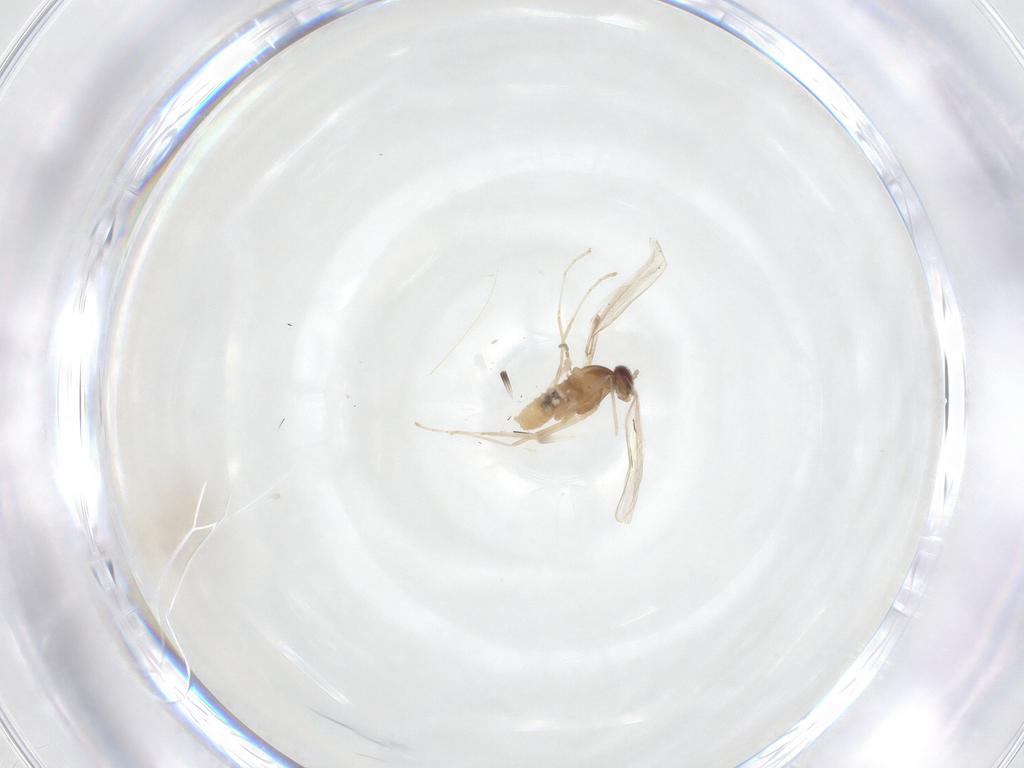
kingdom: Animalia
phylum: Arthropoda
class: Insecta
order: Diptera
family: Cecidomyiidae
